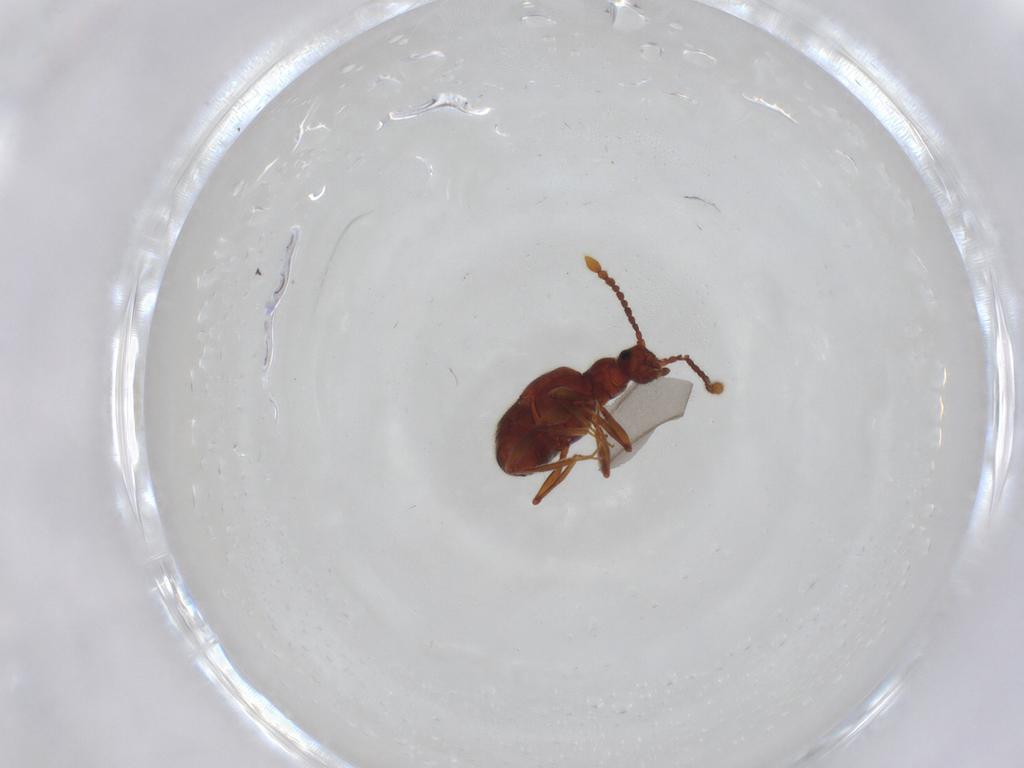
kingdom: Animalia
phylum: Arthropoda
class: Insecta
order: Coleoptera
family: Staphylinidae
